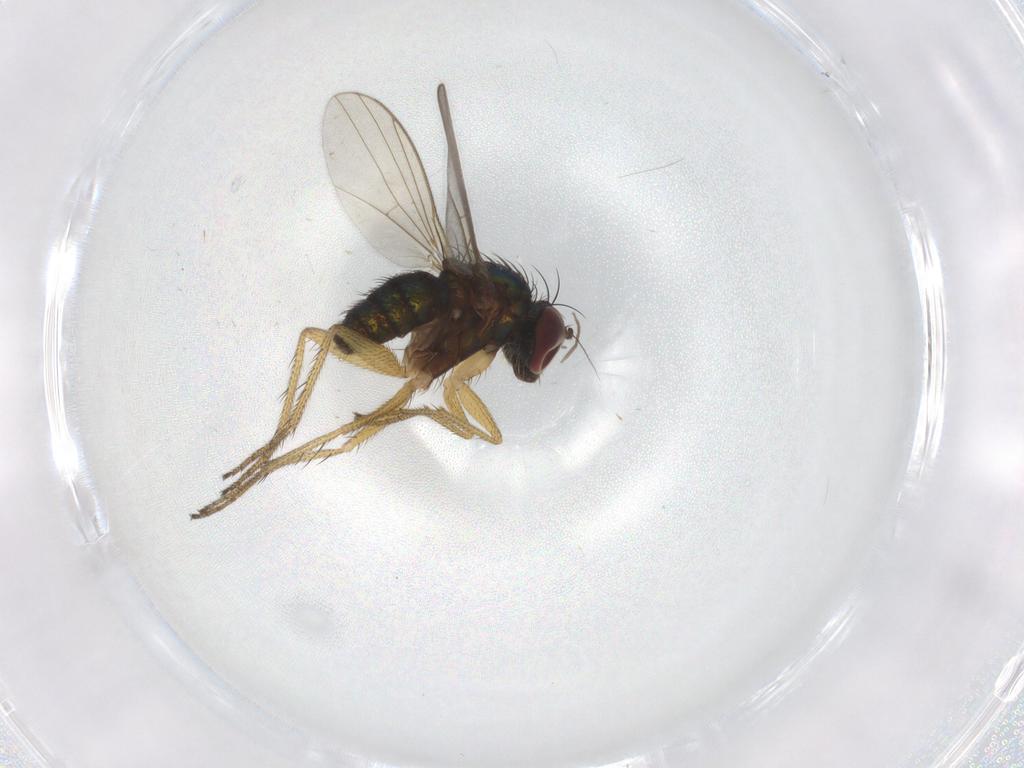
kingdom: Animalia
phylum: Arthropoda
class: Insecta
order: Diptera
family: Dolichopodidae
